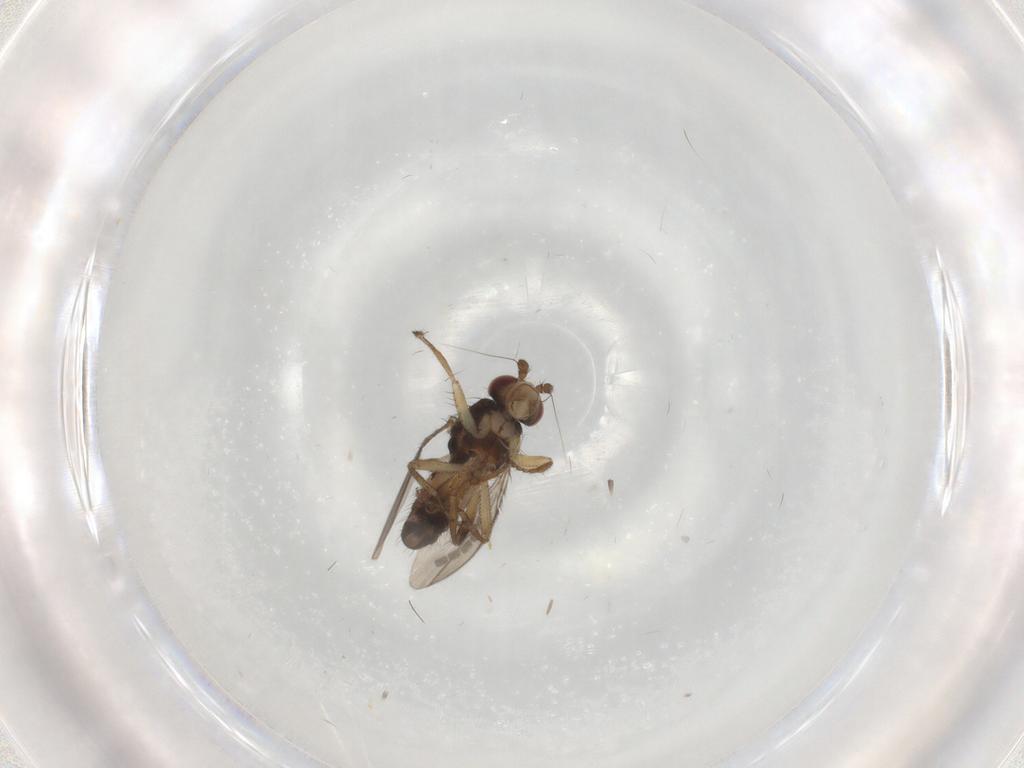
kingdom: Animalia
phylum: Arthropoda
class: Insecta
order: Diptera
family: Sphaeroceridae
